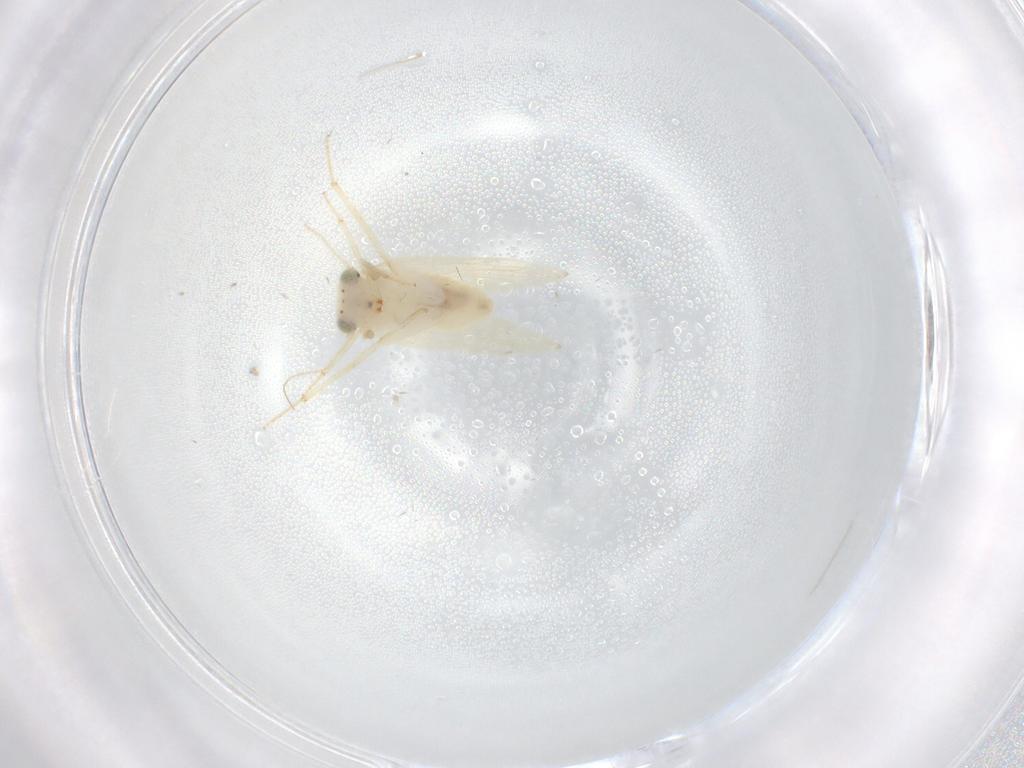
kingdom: Animalia
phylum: Arthropoda
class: Insecta
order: Psocodea
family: Lepidopsocidae
